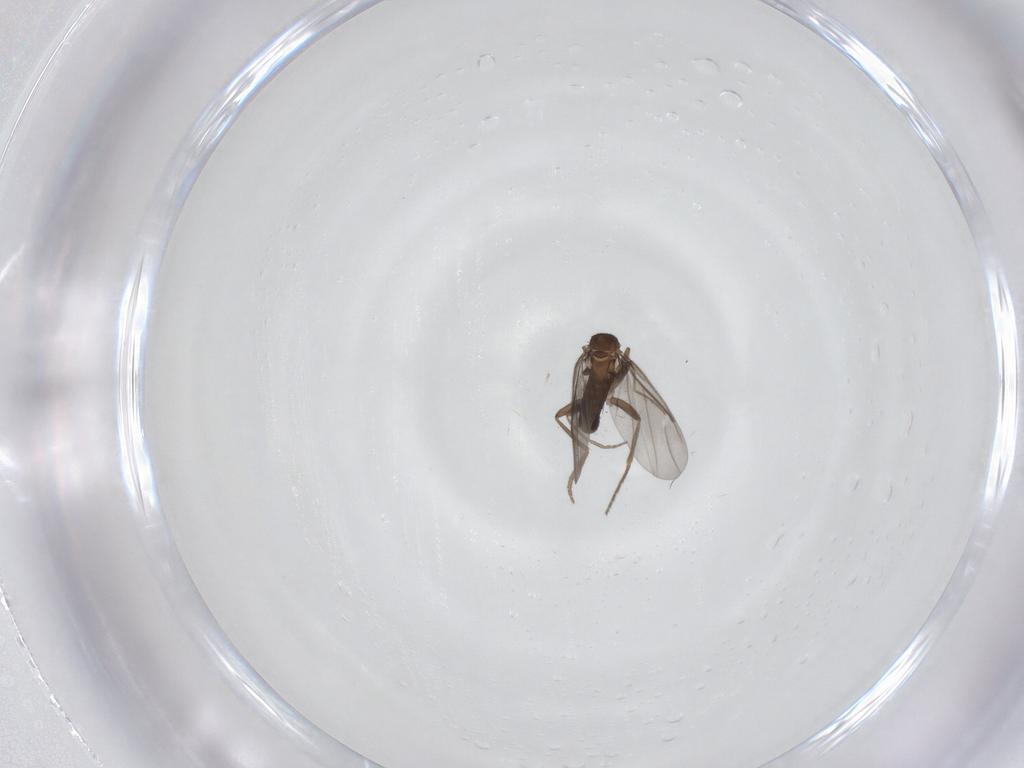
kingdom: Animalia
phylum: Arthropoda
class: Insecta
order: Diptera
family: Phoridae
